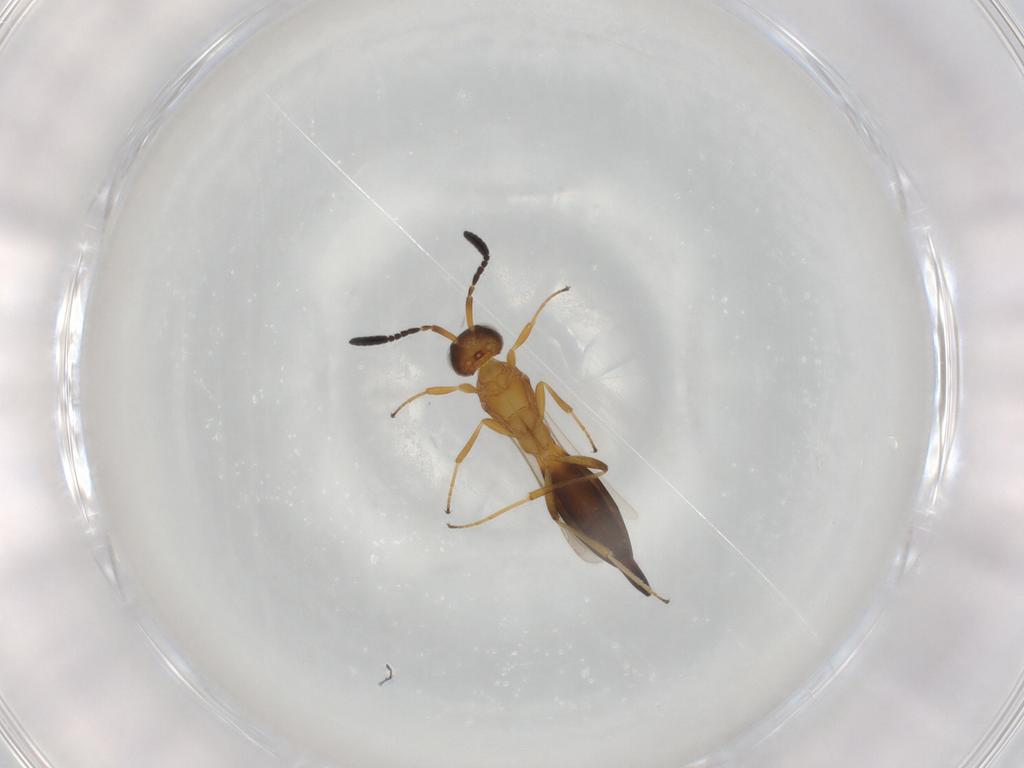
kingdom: Animalia
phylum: Arthropoda
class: Insecta
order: Hymenoptera
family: Scelionidae
